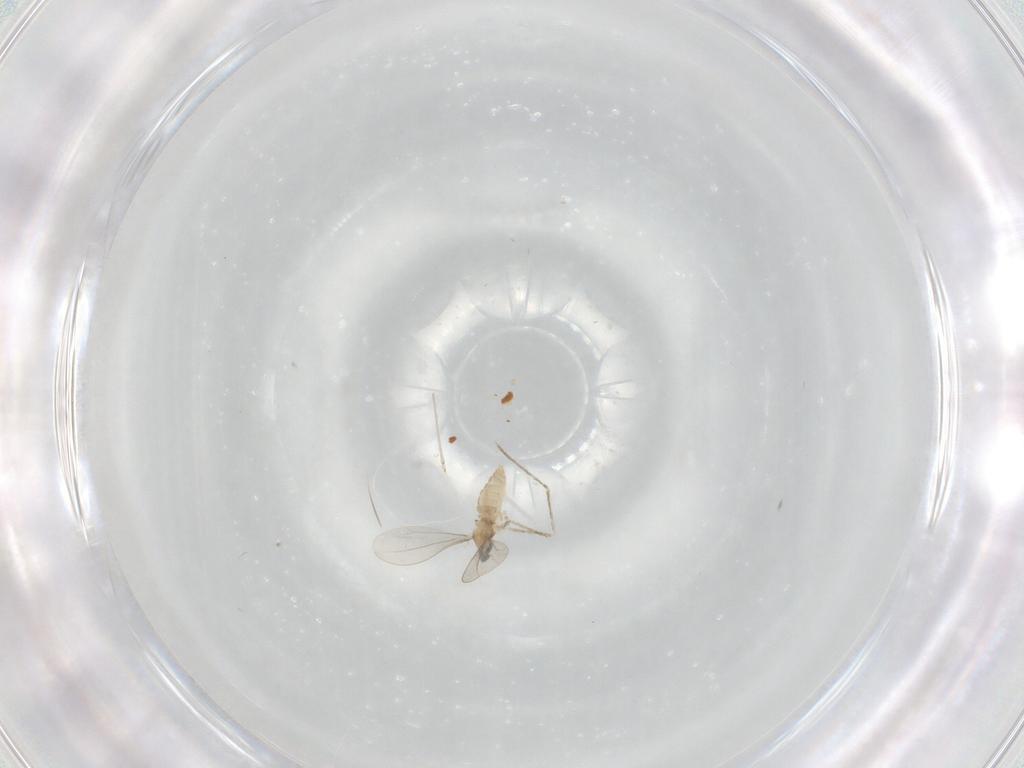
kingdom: Animalia
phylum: Arthropoda
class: Insecta
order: Diptera
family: Cecidomyiidae
